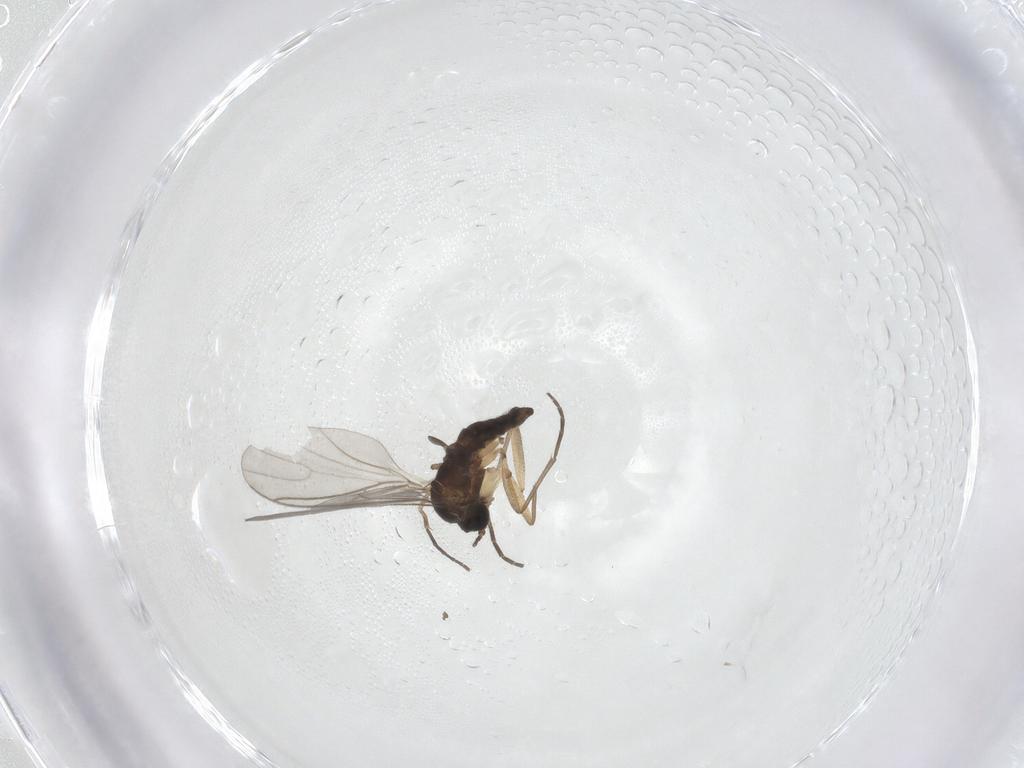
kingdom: Animalia
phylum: Arthropoda
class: Insecta
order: Diptera
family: Sciaridae
